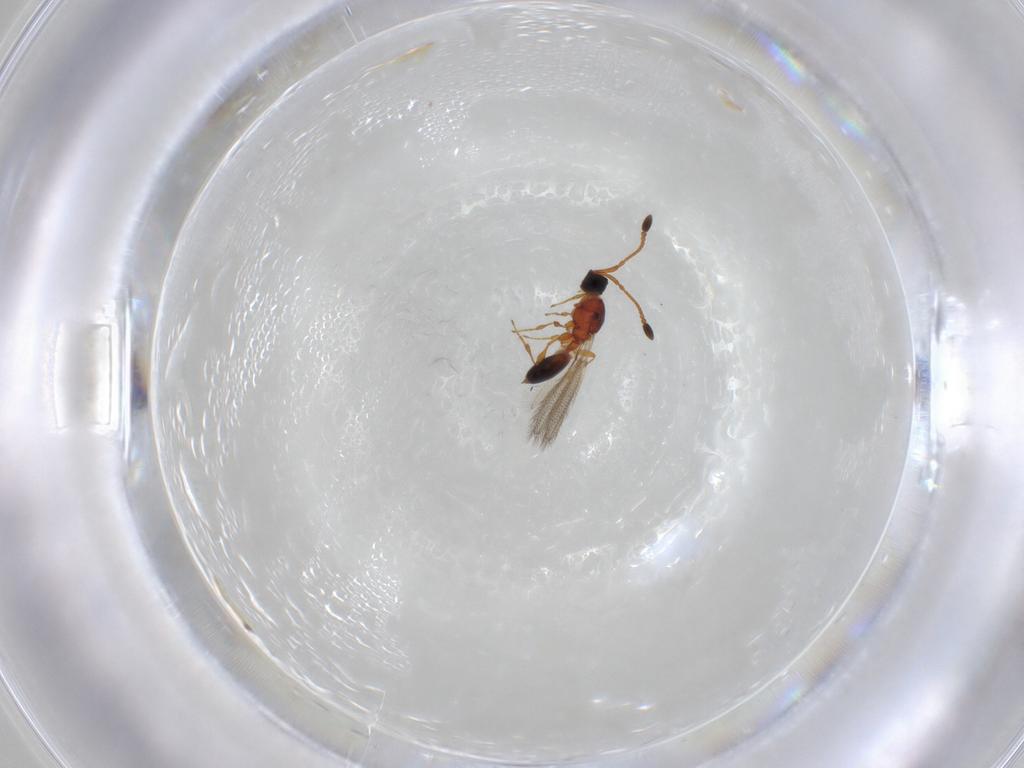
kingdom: Animalia
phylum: Arthropoda
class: Insecta
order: Hymenoptera
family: Diapriidae
